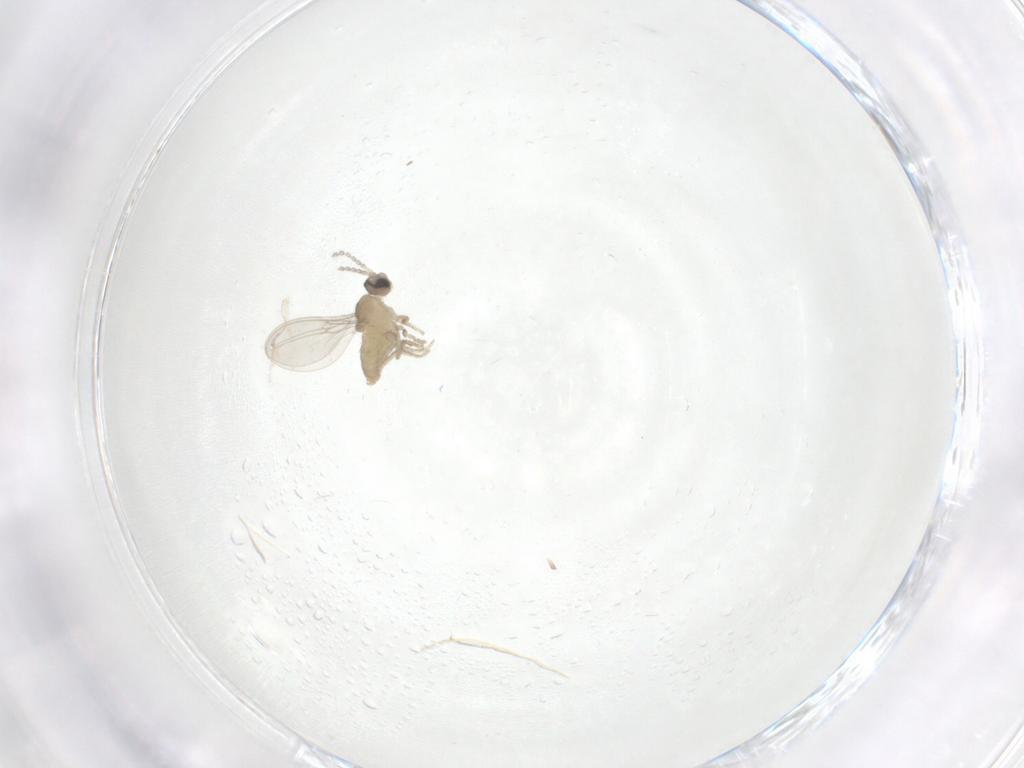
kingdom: Animalia
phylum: Arthropoda
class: Insecta
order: Diptera
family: Cecidomyiidae
